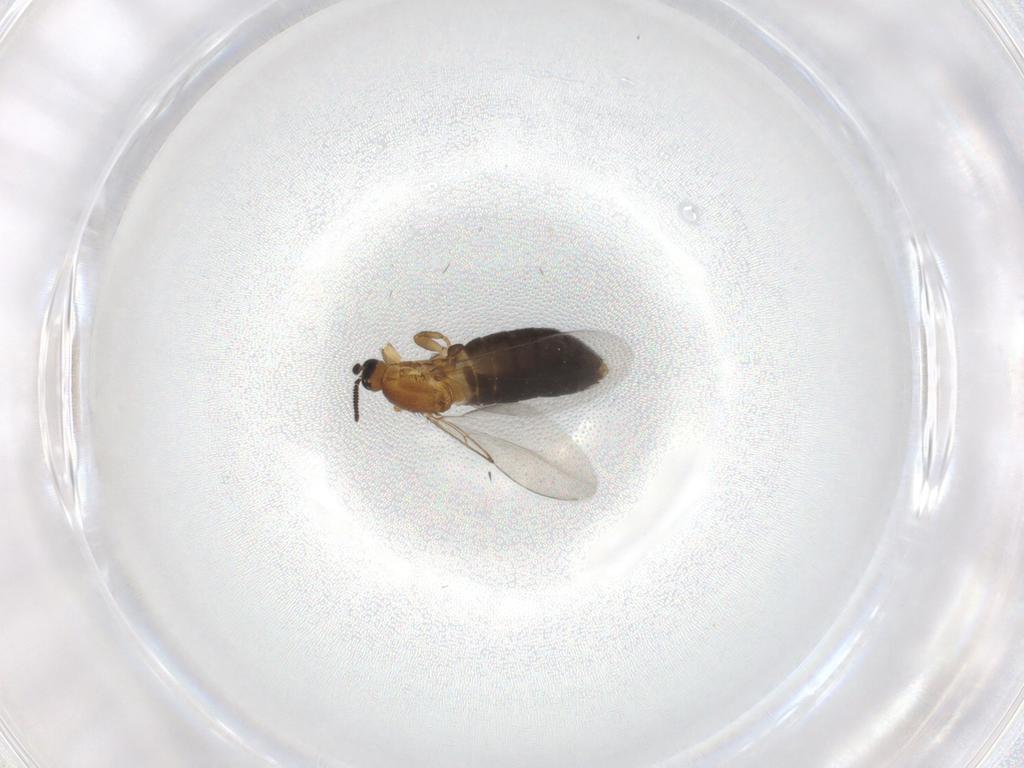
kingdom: Animalia
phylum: Arthropoda
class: Insecta
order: Diptera
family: Scatopsidae
